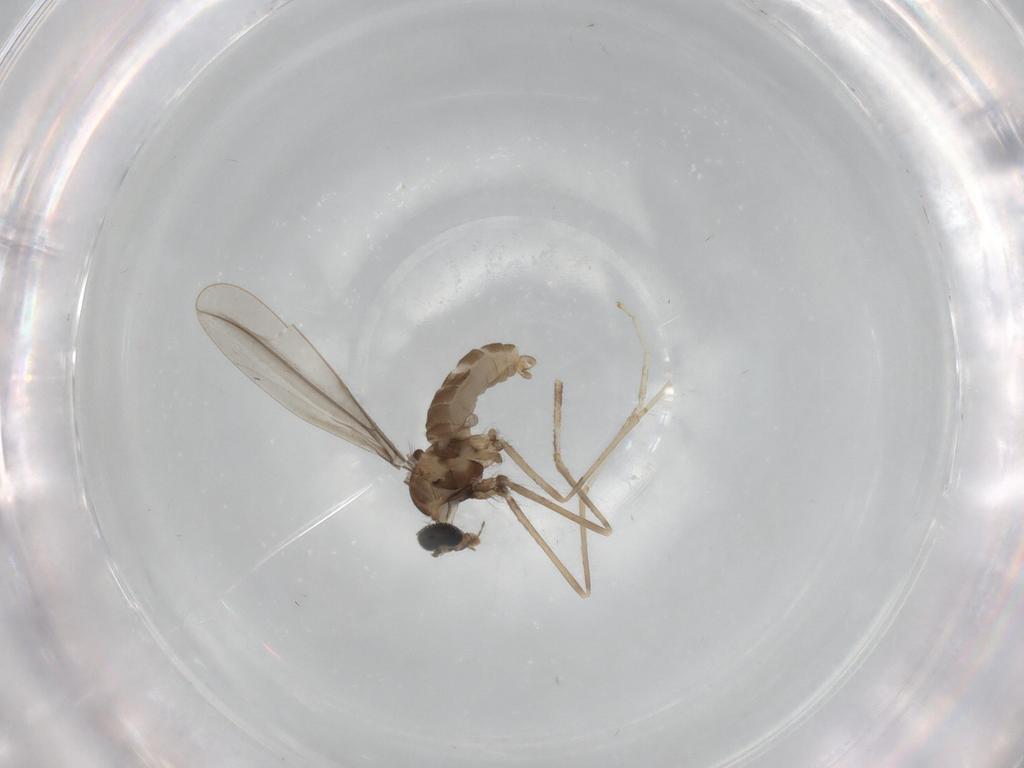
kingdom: Animalia
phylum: Arthropoda
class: Insecta
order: Diptera
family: Cecidomyiidae
